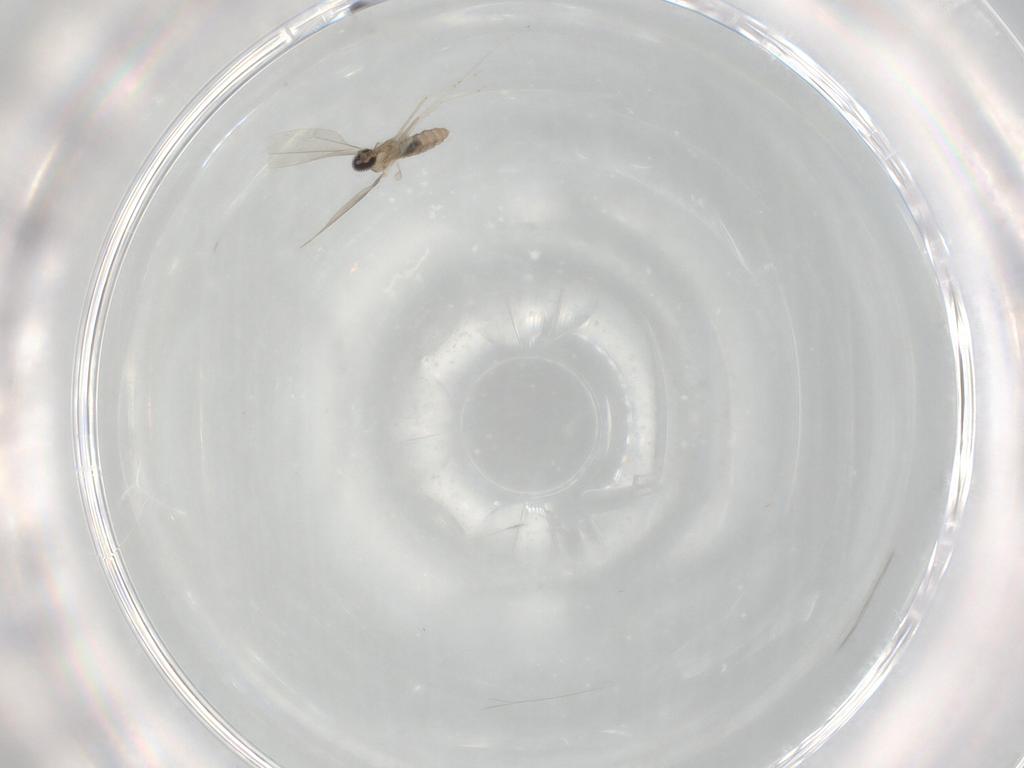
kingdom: Animalia
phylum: Arthropoda
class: Insecta
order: Diptera
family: Cecidomyiidae
